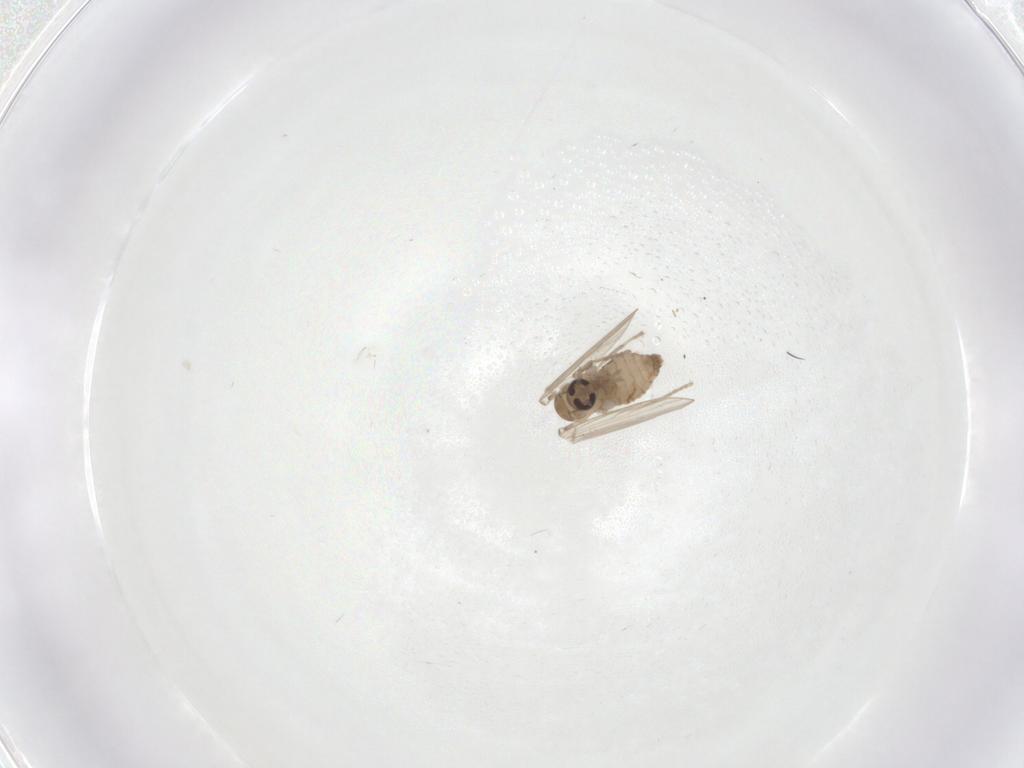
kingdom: Animalia
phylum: Arthropoda
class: Insecta
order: Diptera
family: Psychodidae
